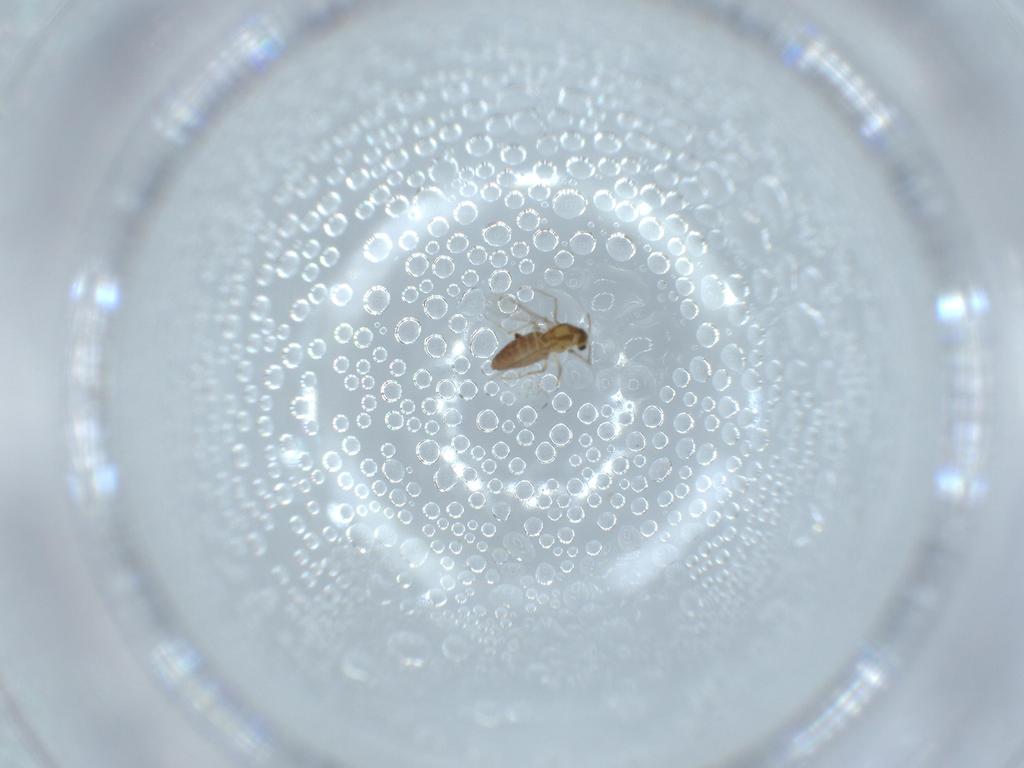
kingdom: Animalia
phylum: Arthropoda
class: Insecta
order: Diptera
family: Chironomidae
